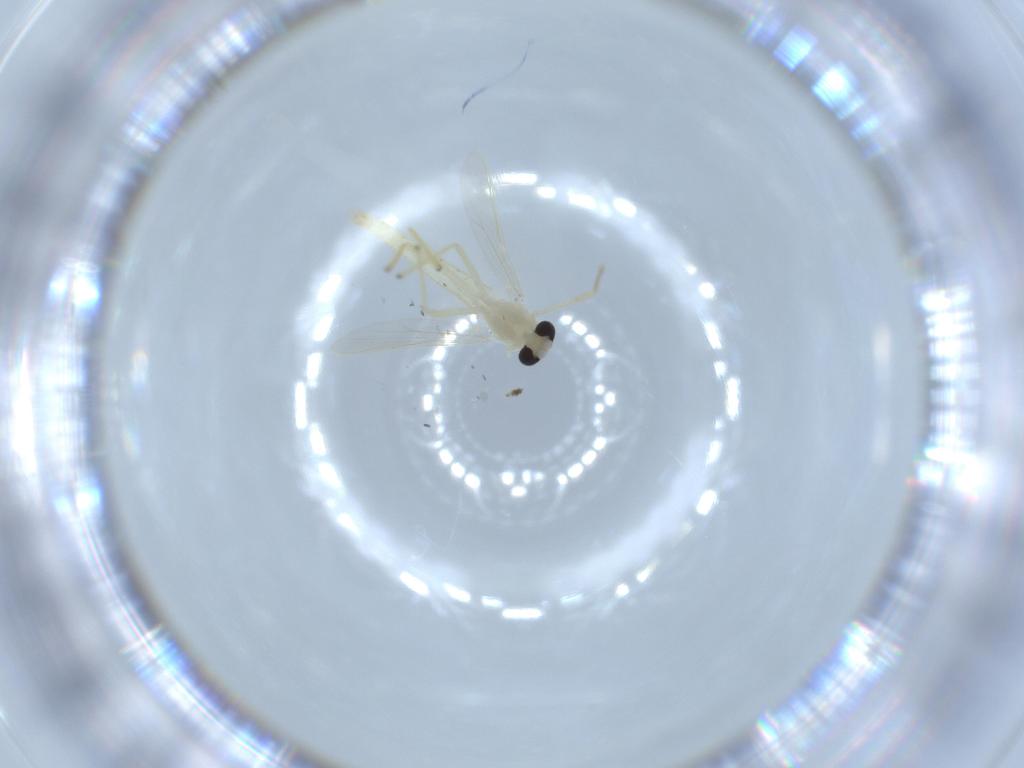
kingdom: Animalia
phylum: Arthropoda
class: Insecta
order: Diptera
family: Chironomidae
